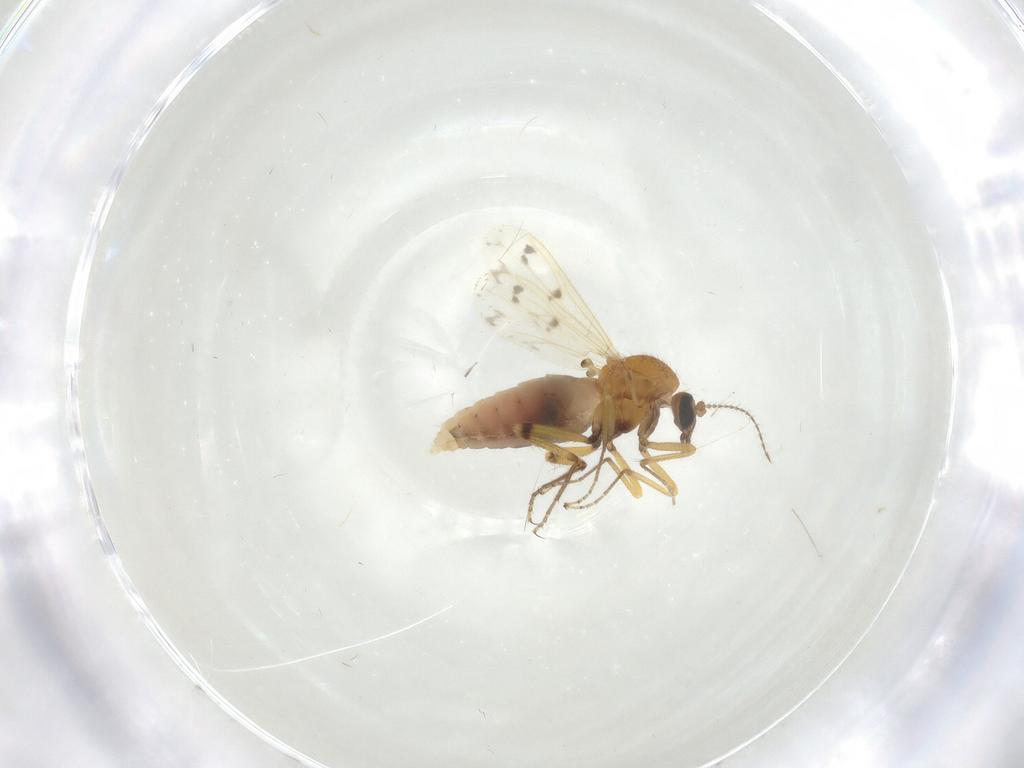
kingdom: Animalia
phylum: Arthropoda
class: Insecta
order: Diptera
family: Ceratopogonidae
